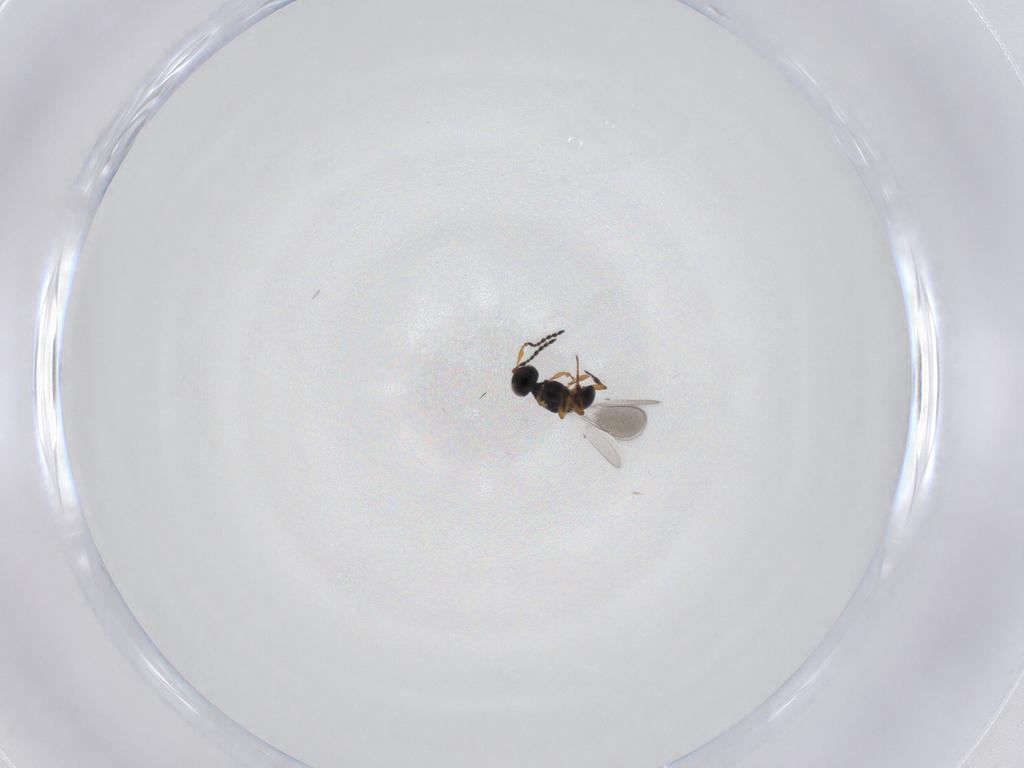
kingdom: Animalia
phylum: Arthropoda
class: Insecta
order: Hymenoptera
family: Platygastridae
